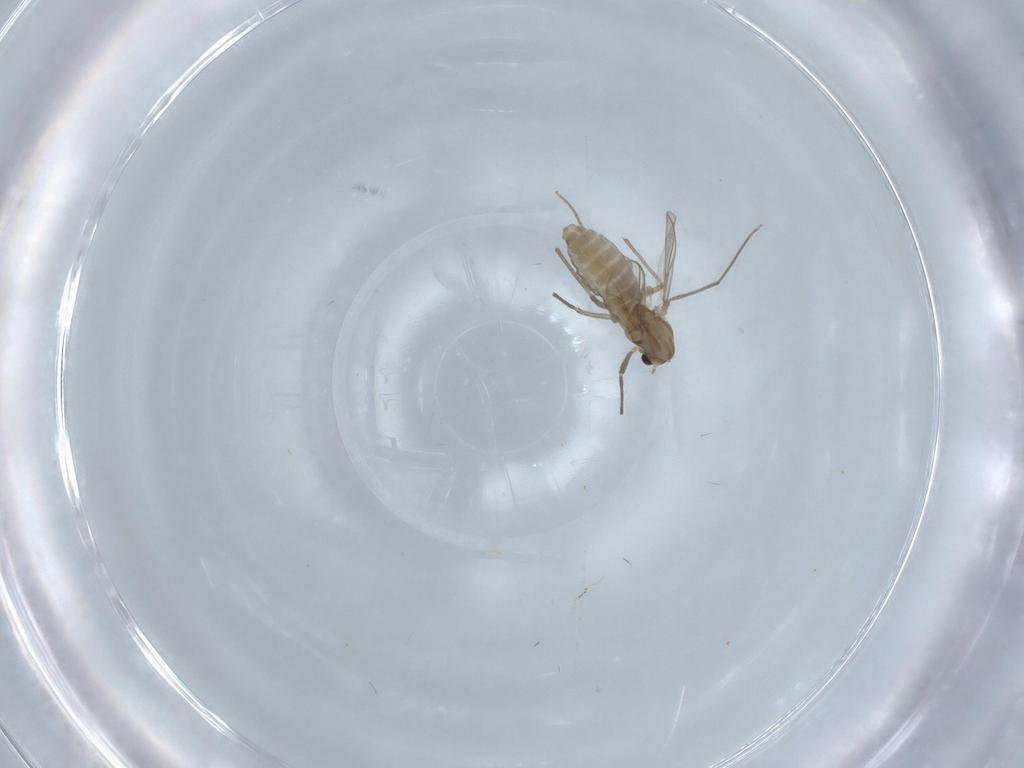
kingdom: Animalia
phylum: Arthropoda
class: Insecta
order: Diptera
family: Chironomidae
